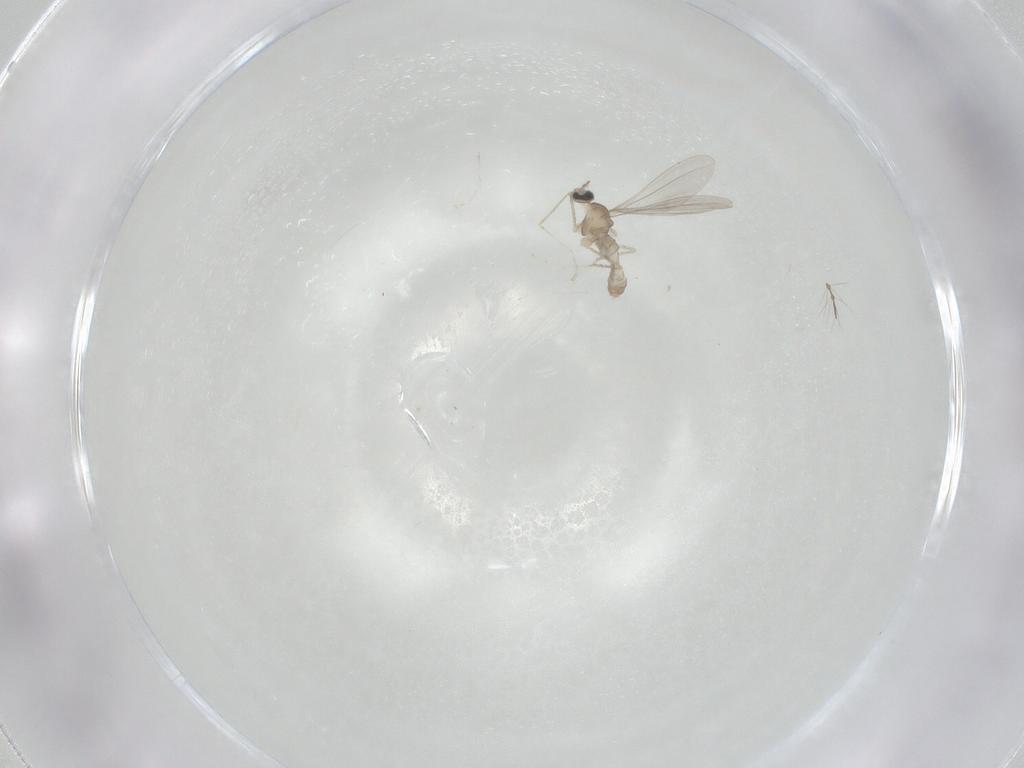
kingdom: Animalia
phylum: Arthropoda
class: Insecta
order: Diptera
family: Cecidomyiidae
